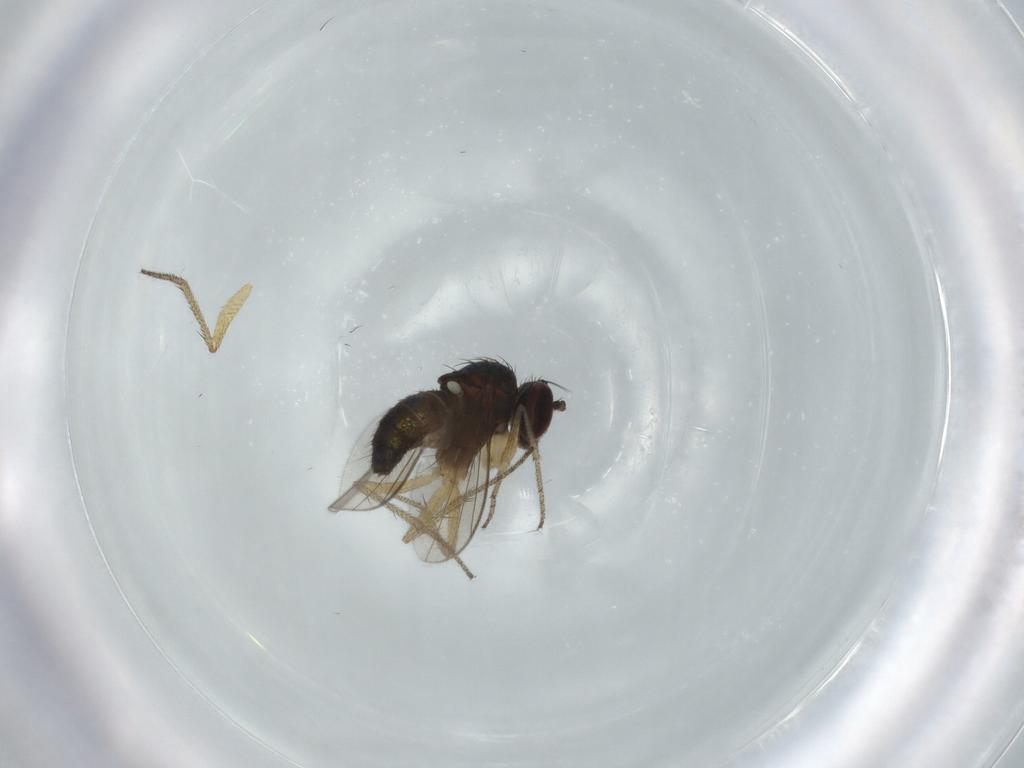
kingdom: Animalia
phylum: Arthropoda
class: Insecta
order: Diptera
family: Dolichopodidae
